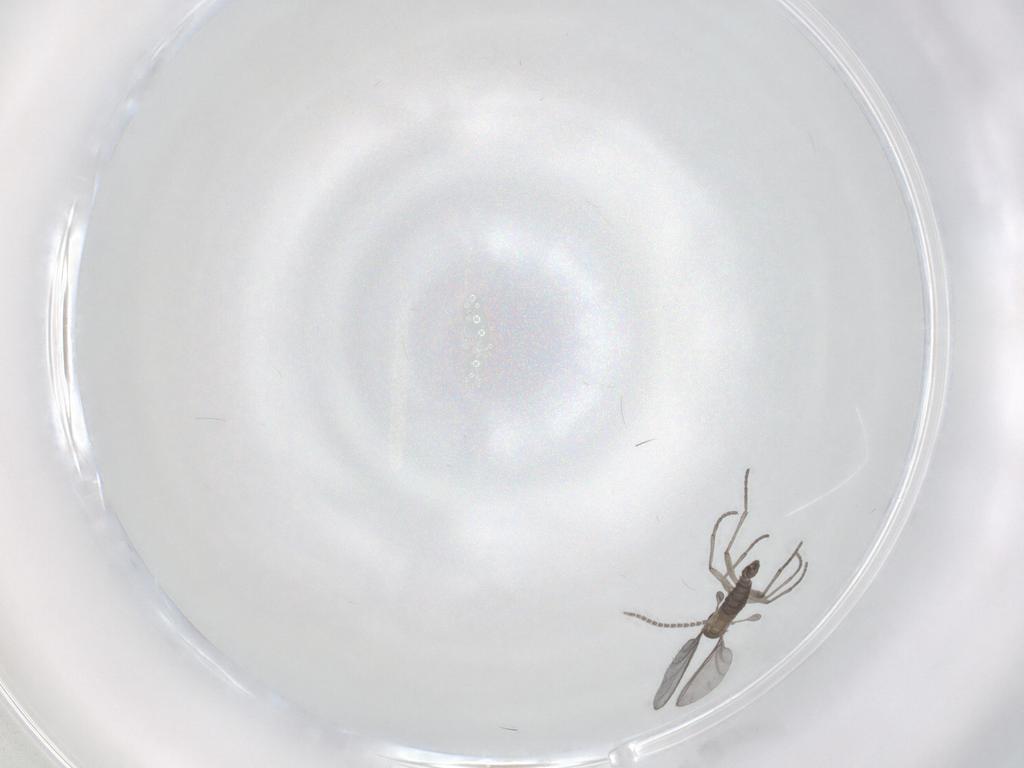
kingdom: Animalia
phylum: Arthropoda
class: Insecta
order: Diptera
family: Sciaridae
